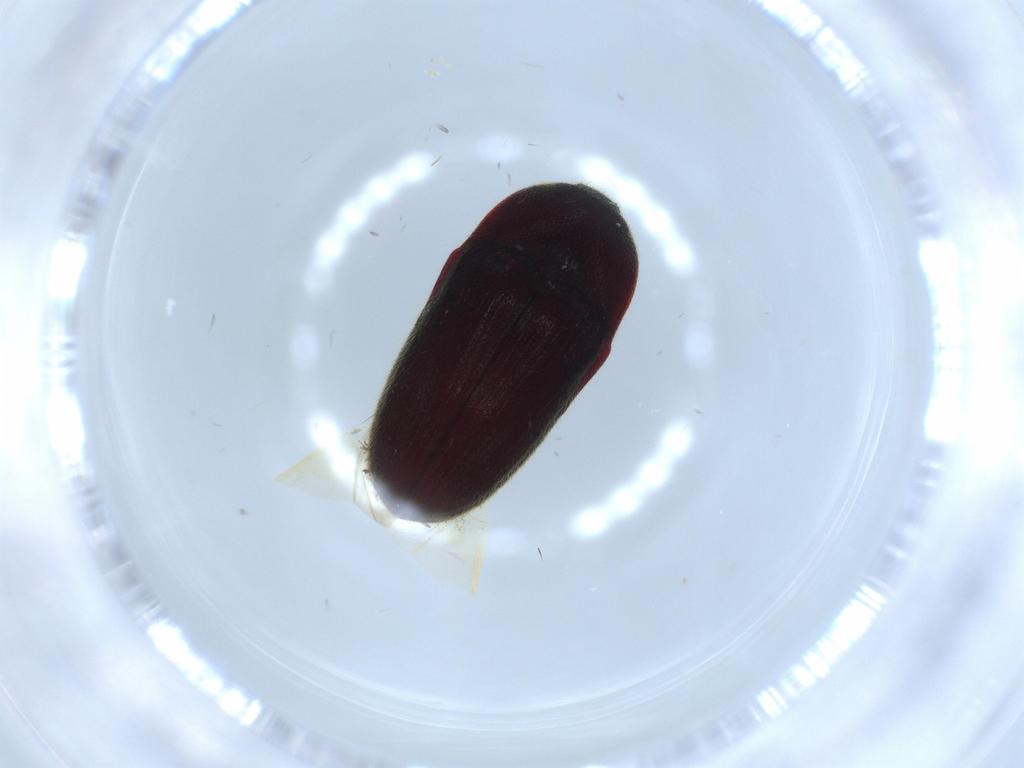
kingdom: Animalia
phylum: Arthropoda
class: Insecta
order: Coleoptera
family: Throscidae
